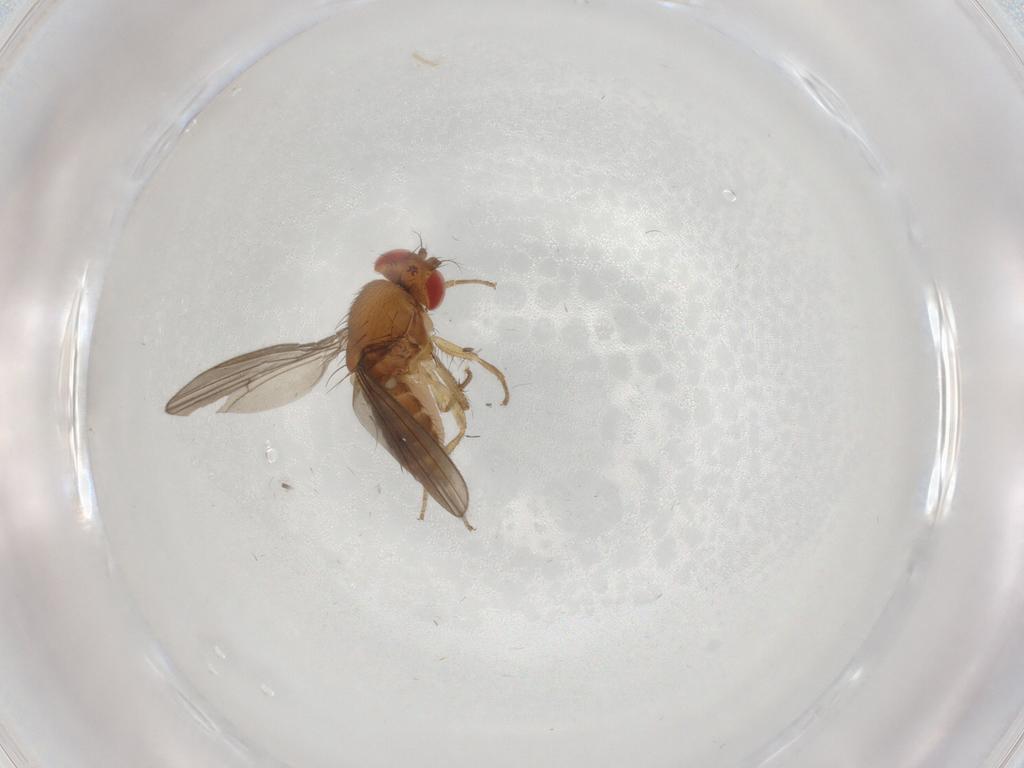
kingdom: Animalia
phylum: Arthropoda
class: Insecta
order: Diptera
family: Drosophilidae
